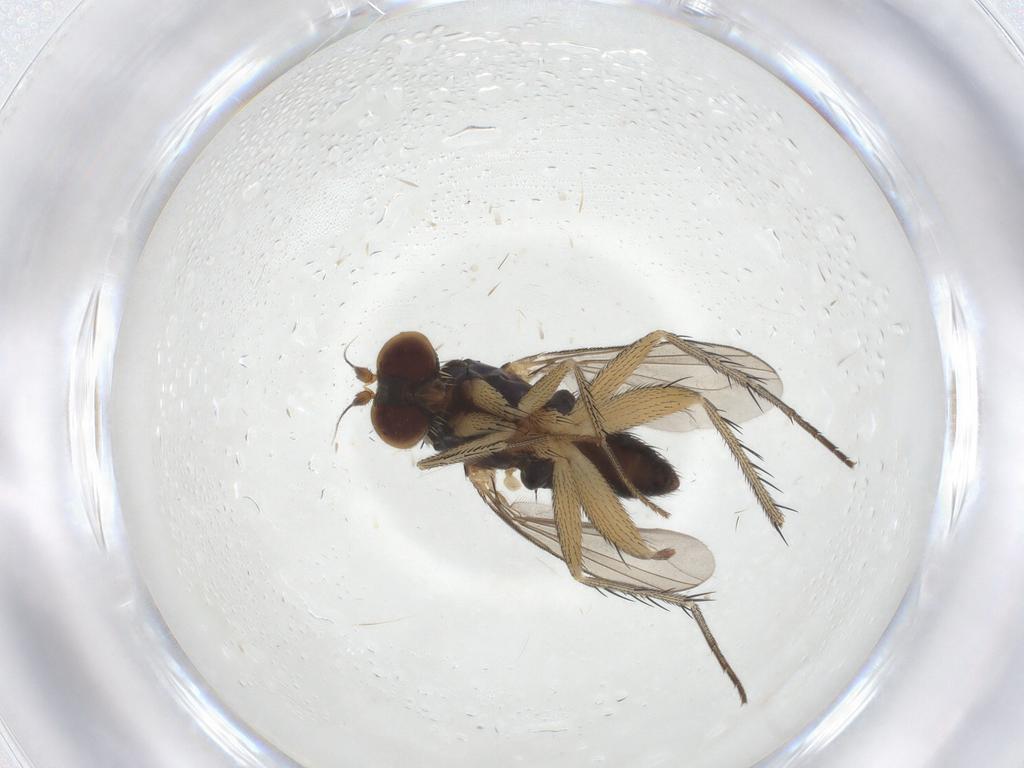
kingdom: Animalia
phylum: Arthropoda
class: Insecta
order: Diptera
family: Dolichopodidae
